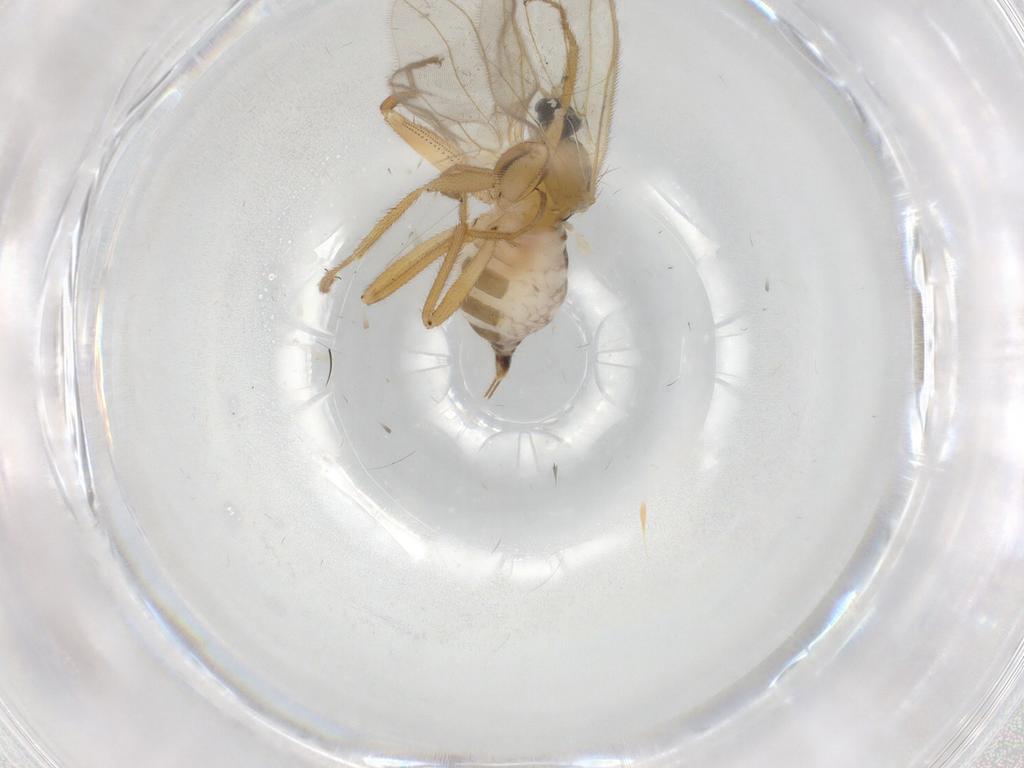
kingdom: Animalia
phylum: Arthropoda
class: Insecta
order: Diptera
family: Hybotidae
